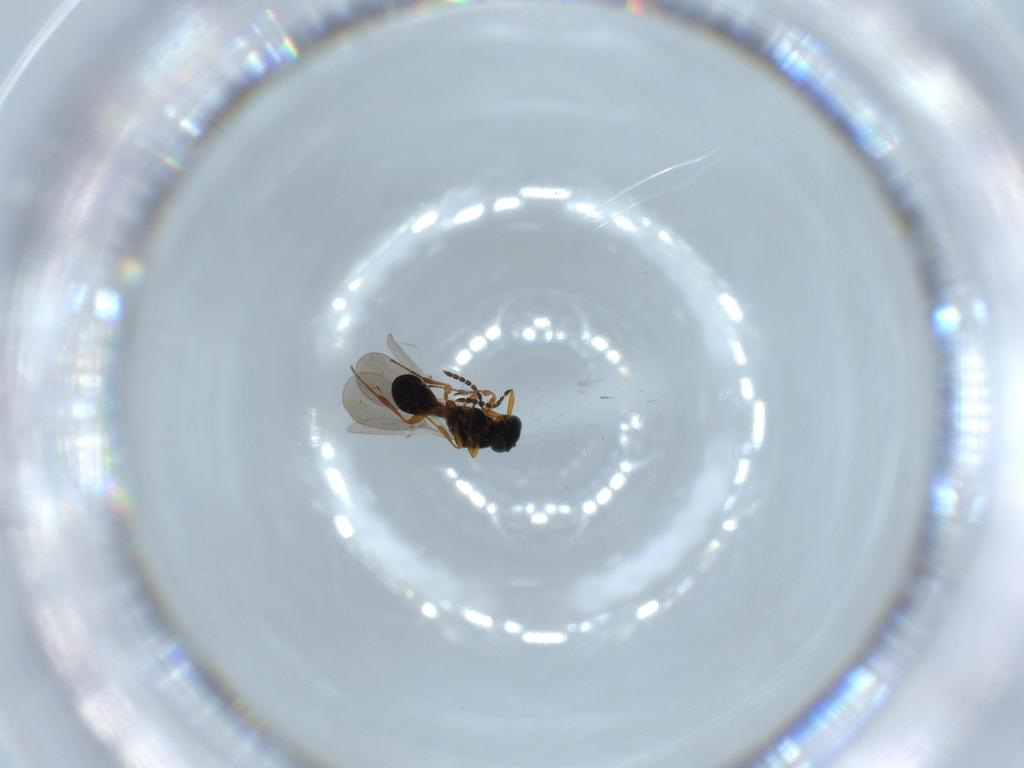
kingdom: Animalia
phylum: Arthropoda
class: Insecta
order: Hymenoptera
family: Platygastridae
